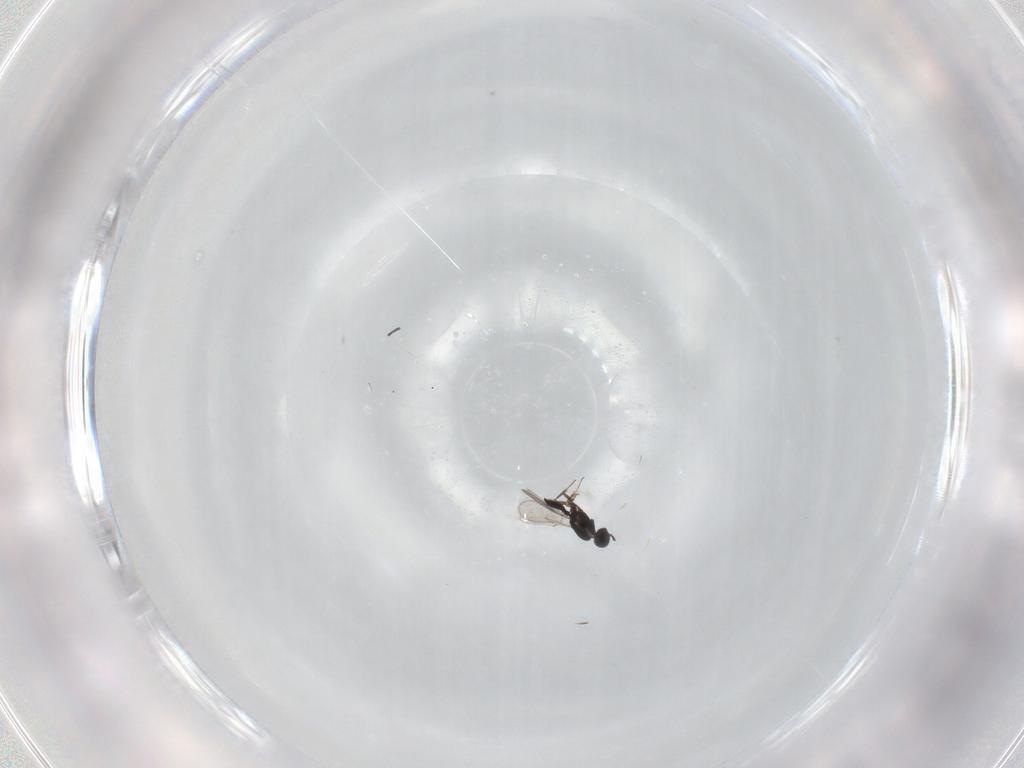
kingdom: Animalia
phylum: Arthropoda
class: Insecta
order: Hymenoptera
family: Scelionidae
